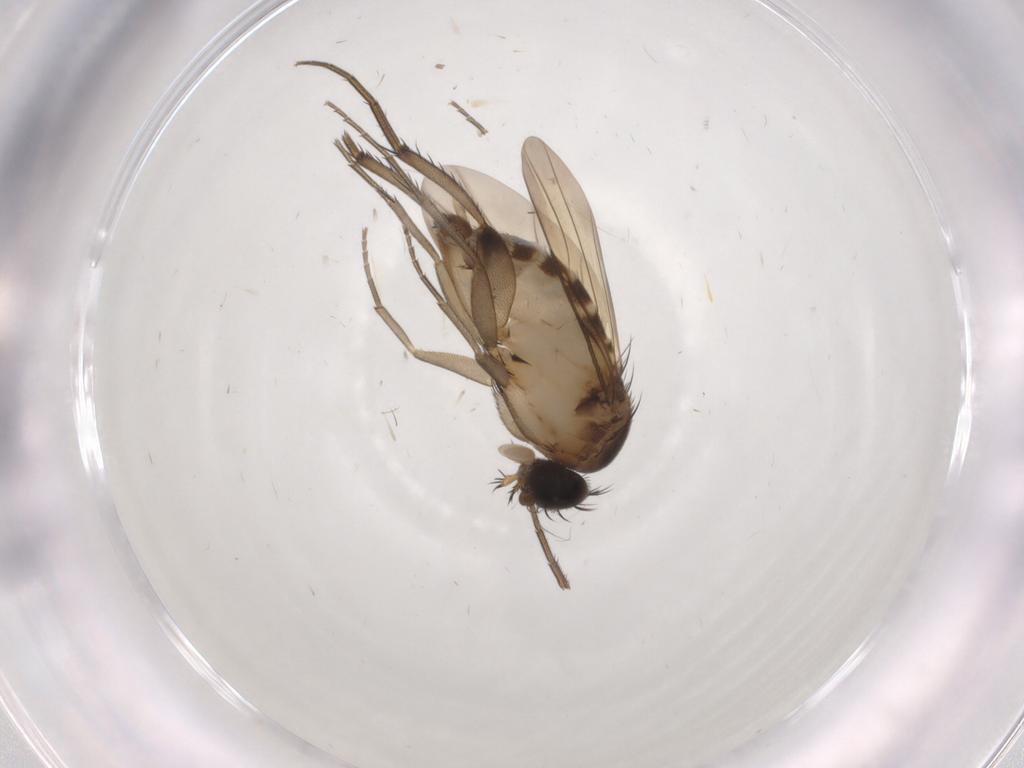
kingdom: Animalia
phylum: Arthropoda
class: Insecta
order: Diptera
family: Phoridae
